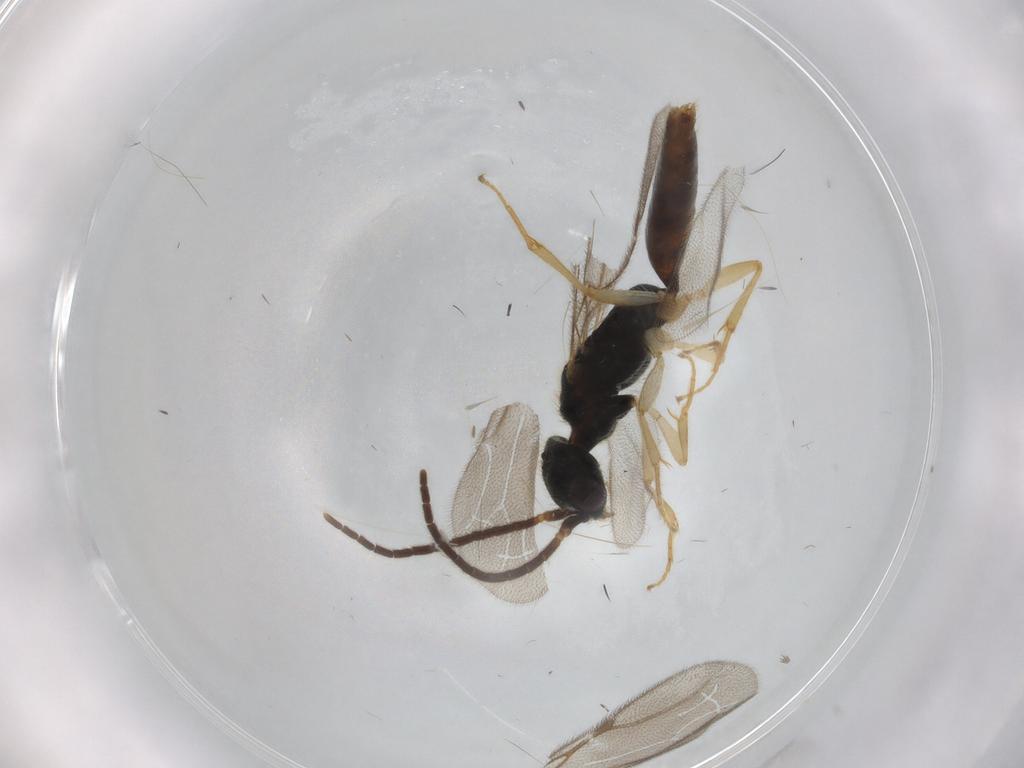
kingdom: Animalia
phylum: Arthropoda
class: Insecta
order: Hymenoptera
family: Bethylidae
